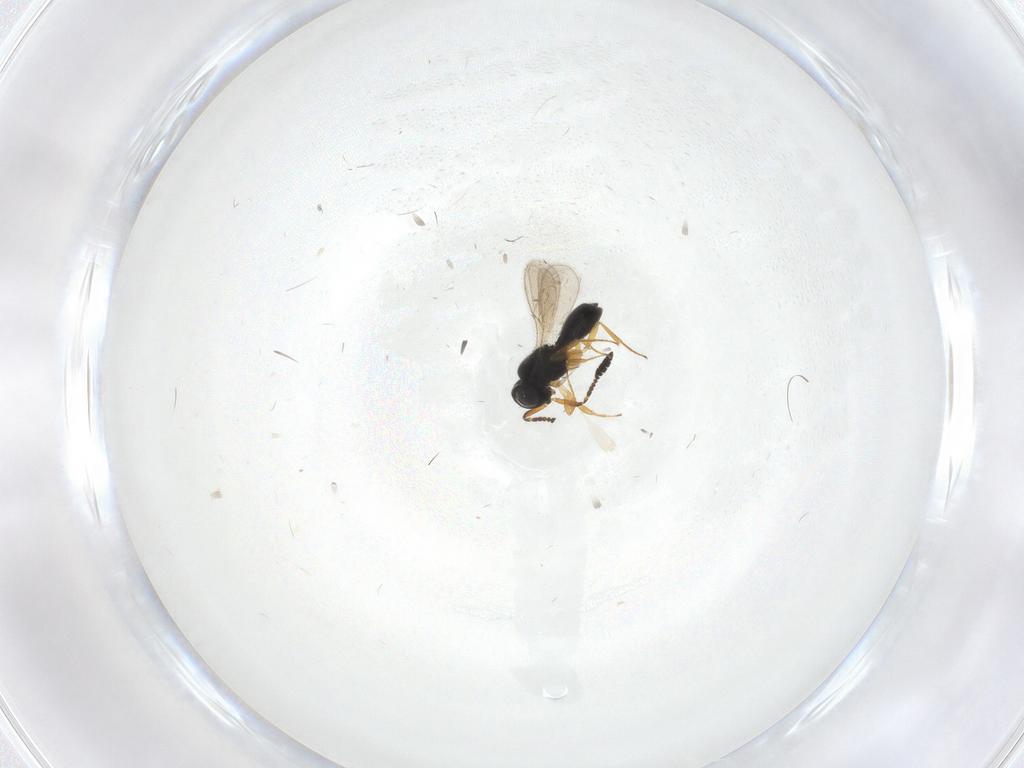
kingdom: Animalia
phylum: Arthropoda
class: Insecta
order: Hymenoptera
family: Scelionidae
